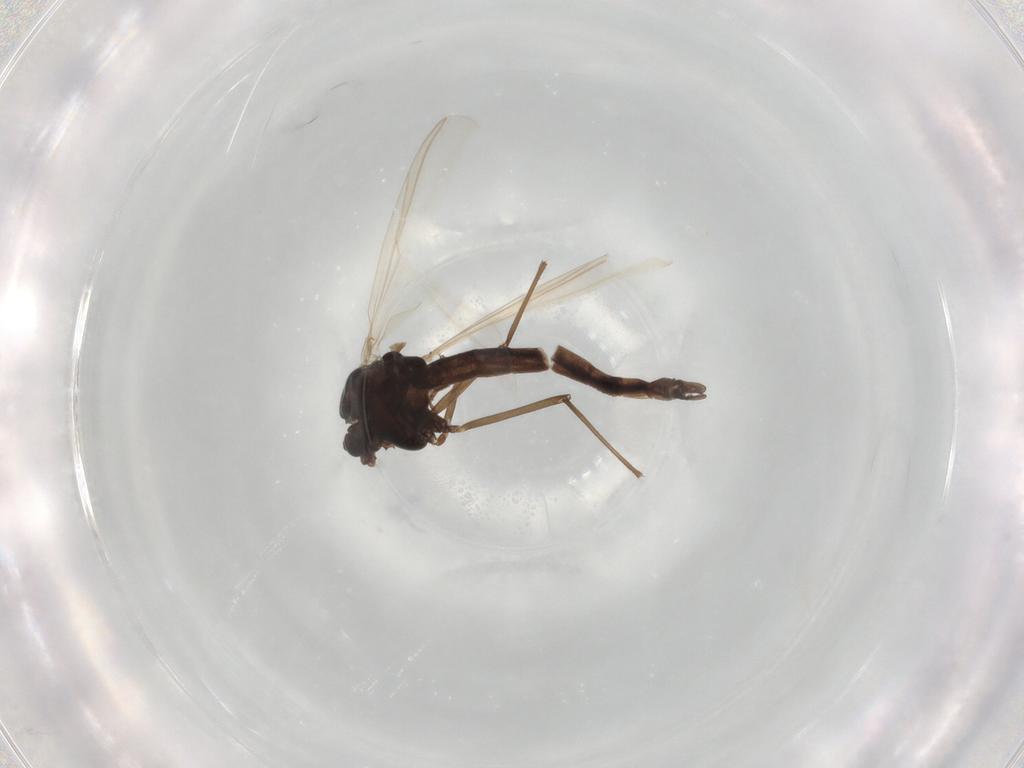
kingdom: Animalia
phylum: Arthropoda
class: Insecta
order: Diptera
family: Chironomidae
